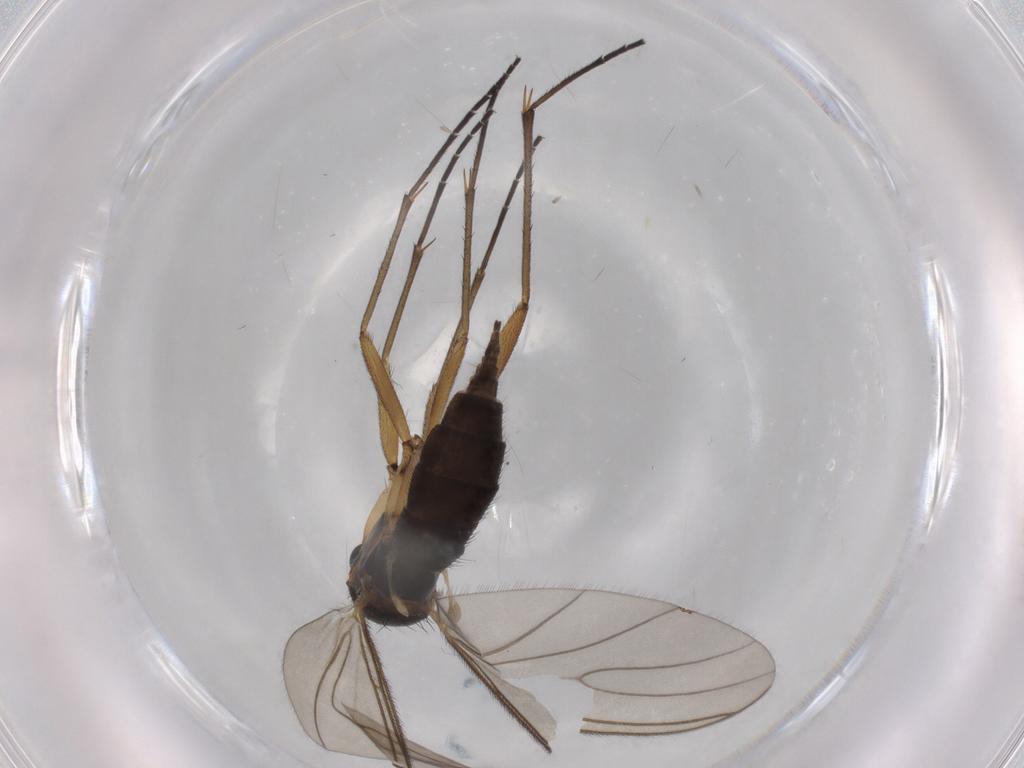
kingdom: Animalia
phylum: Arthropoda
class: Insecta
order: Diptera
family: Sciaridae
